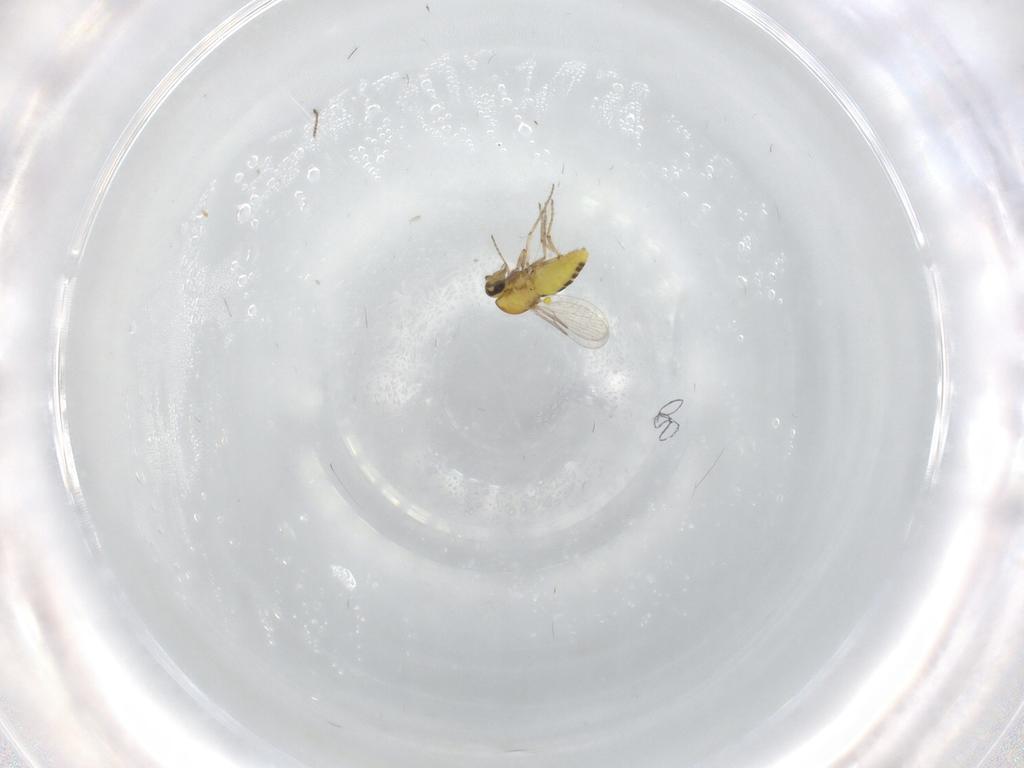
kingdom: Animalia
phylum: Arthropoda
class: Insecta
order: Diptera
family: Ceratopogonidae
